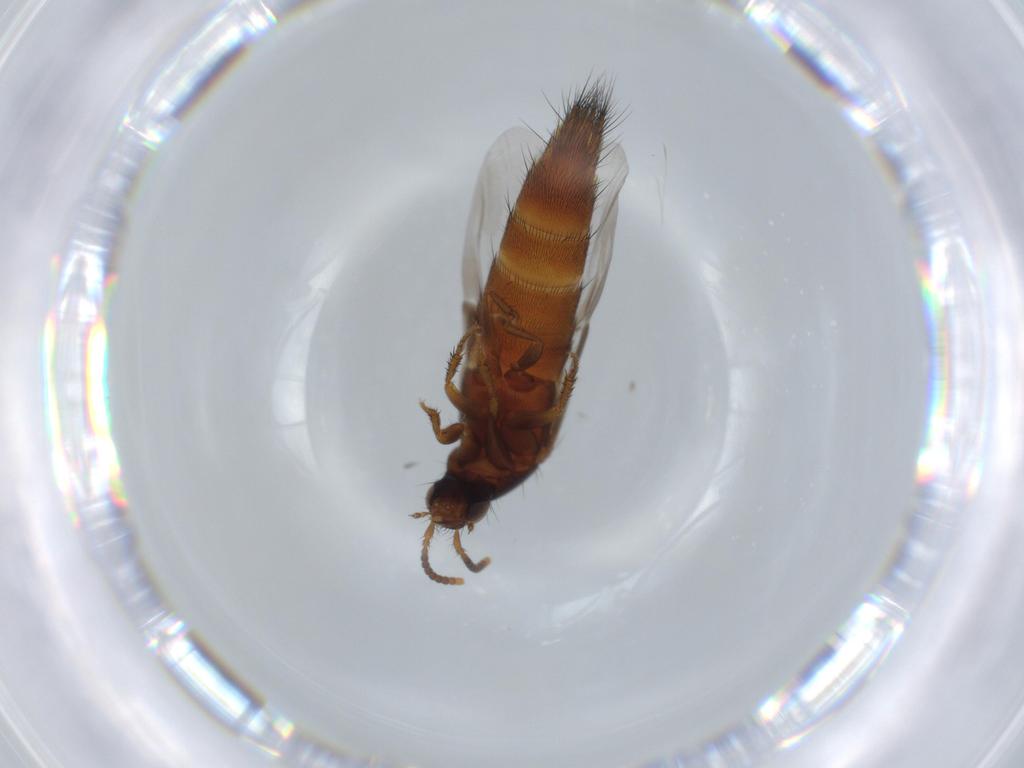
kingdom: Animalia
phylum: Arthropoda
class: Insecta
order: Coleoptera
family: Staphylinidae
